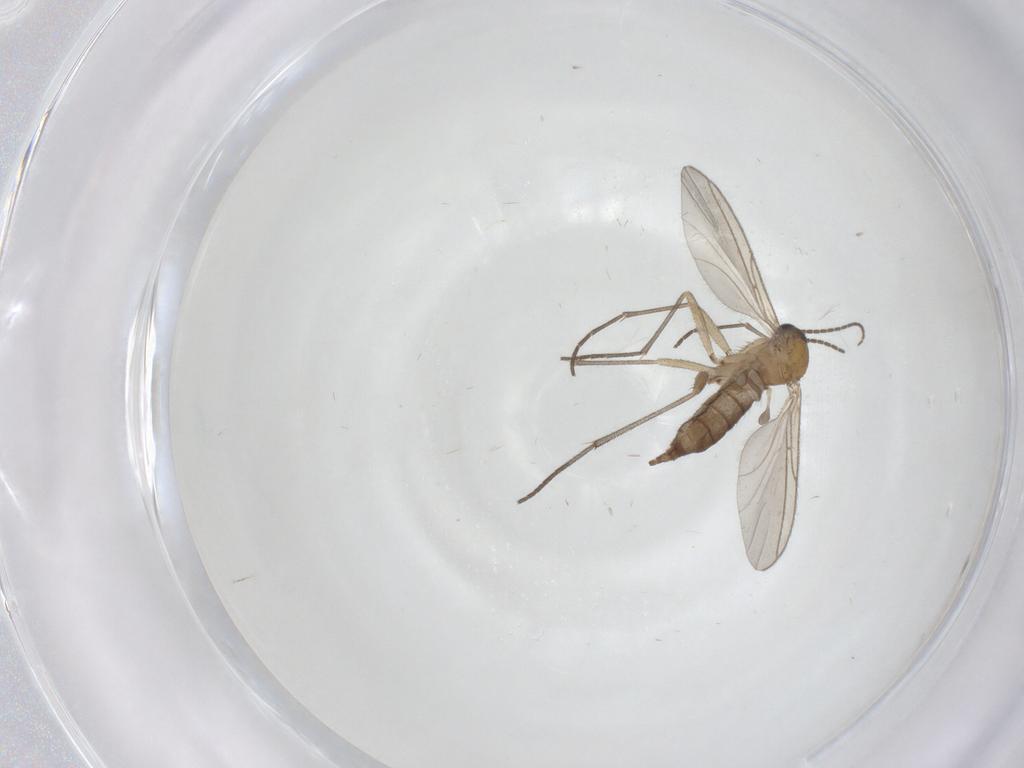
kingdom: Animalia
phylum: Arthropoda
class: Insecta
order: Diptera
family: Sciaridae
